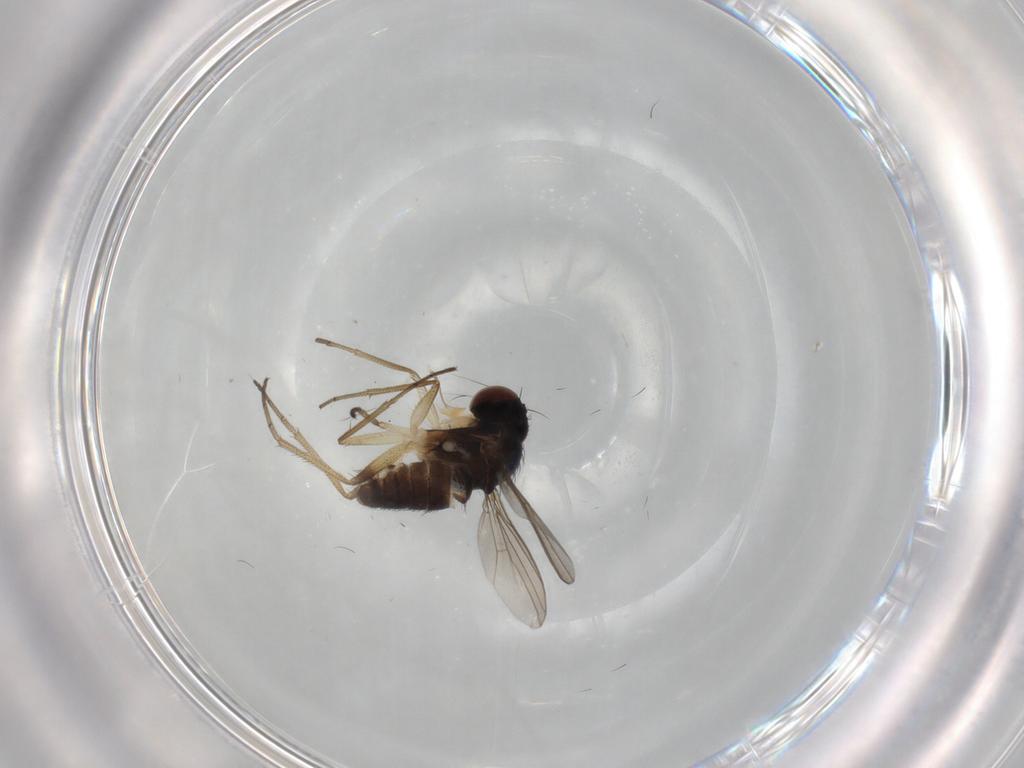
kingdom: Animalia
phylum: Arthropoda
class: Insecta
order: Diptera
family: Dolichopodidae
